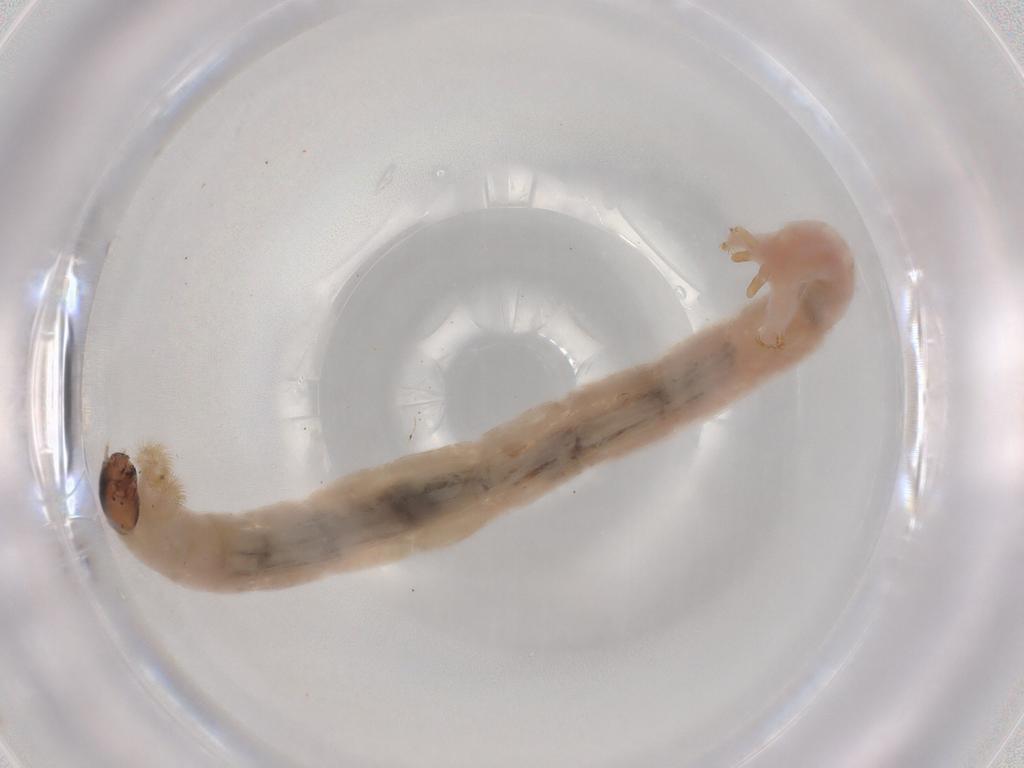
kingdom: Animalia
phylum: Arthropoda
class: Insecta
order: Diptera
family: Chironomidae
